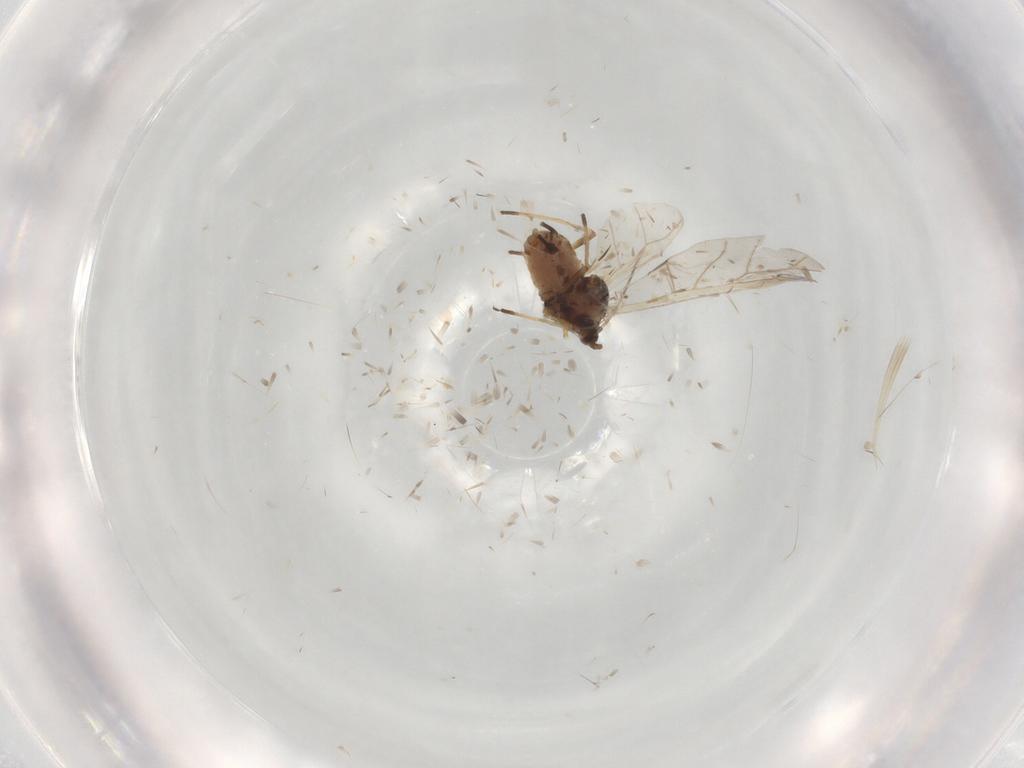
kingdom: Animalia
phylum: Arthropoda
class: Insecta
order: Hemiptera
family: Aphididae
